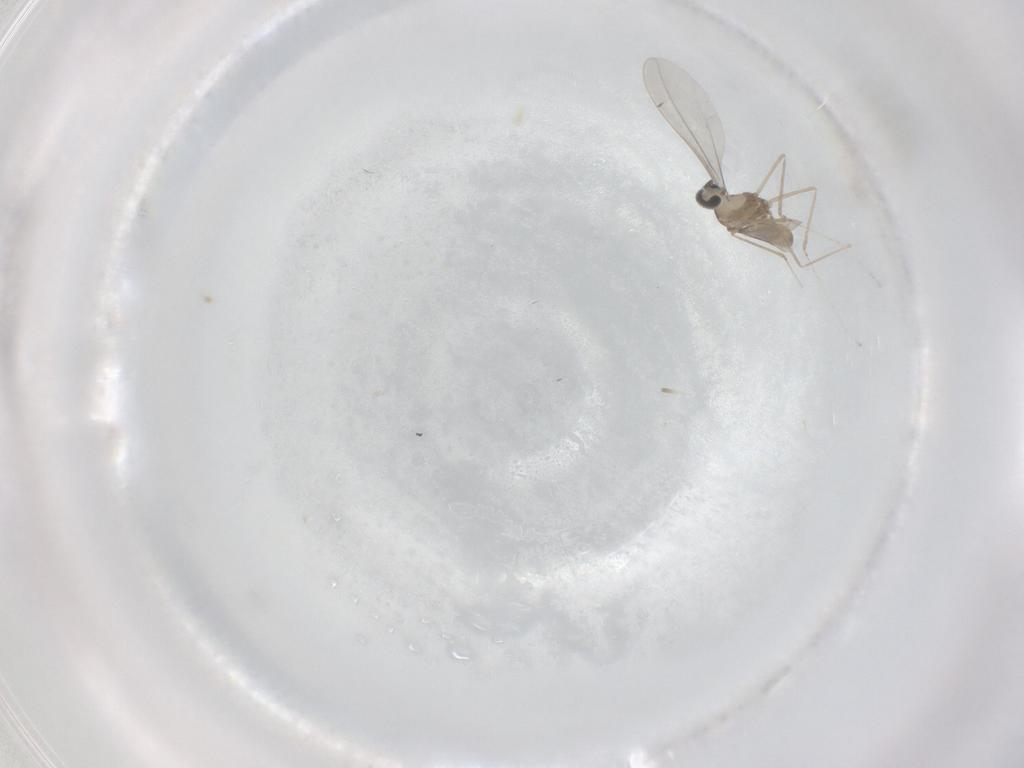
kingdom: Animalia
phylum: Arthropoda
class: Insecta
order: Diptera
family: Cecidomyiidae
